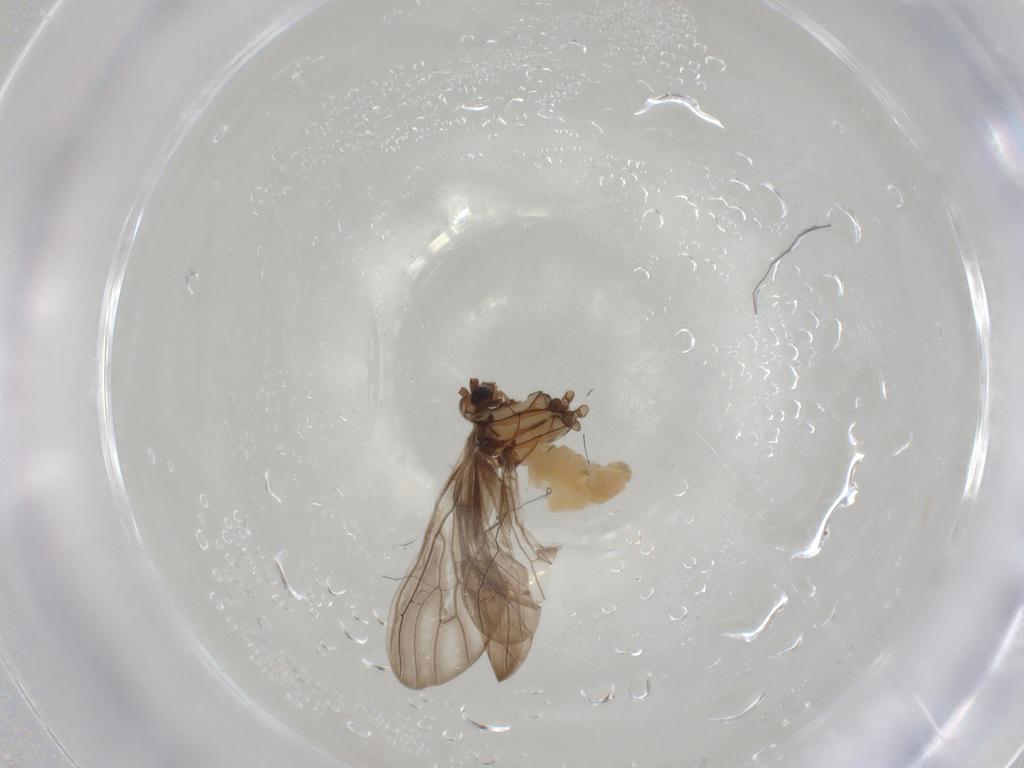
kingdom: Animalia
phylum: Arthropoda
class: Insecta
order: Neuroptera
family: Coniopterygidae
